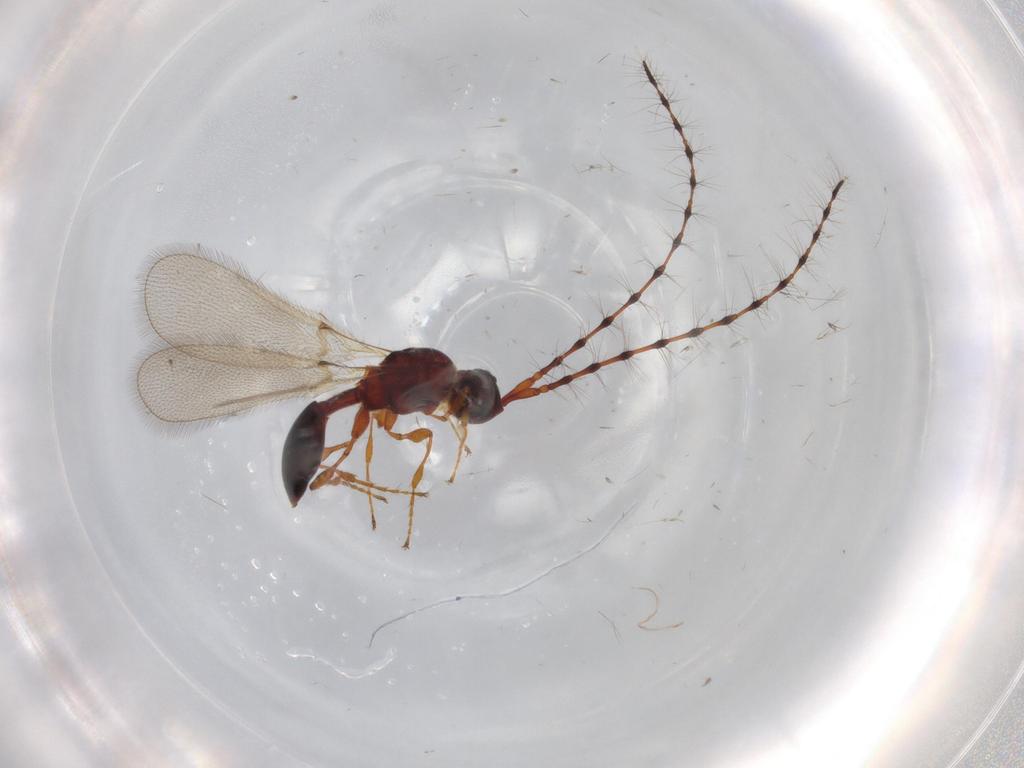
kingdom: Animalia
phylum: Arthropoda
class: Insecta
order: Hymenoptera
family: Diapriidae
